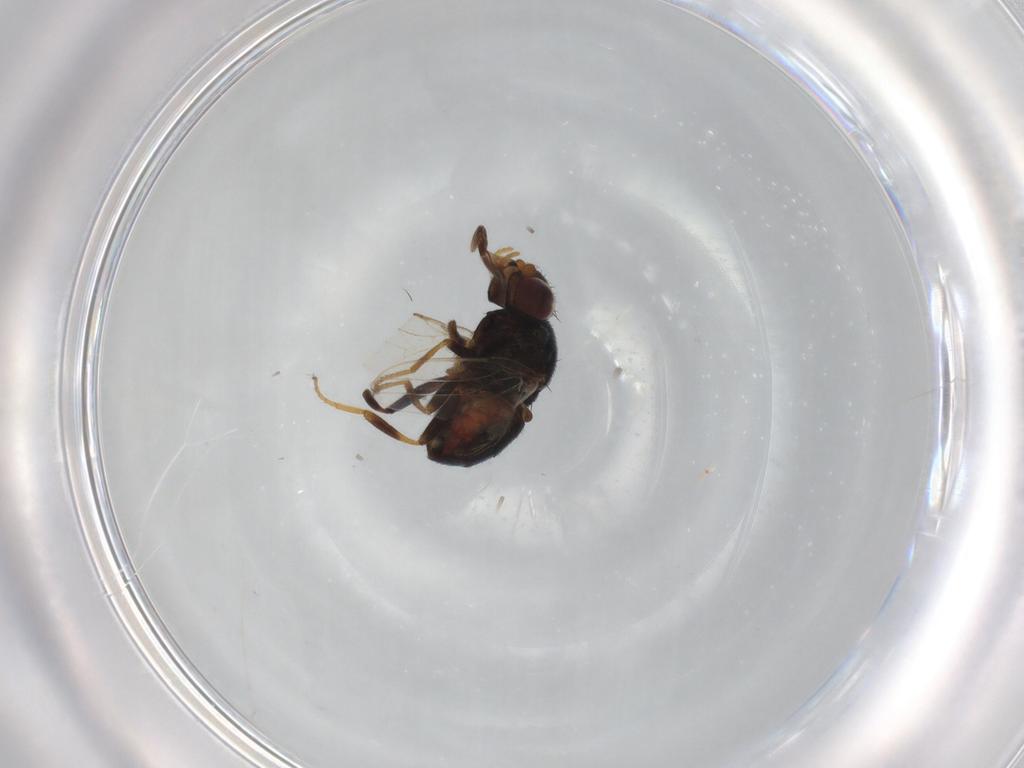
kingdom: Animalia
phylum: Arthropoda
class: Insecta
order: Diptera
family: Chloropidae
